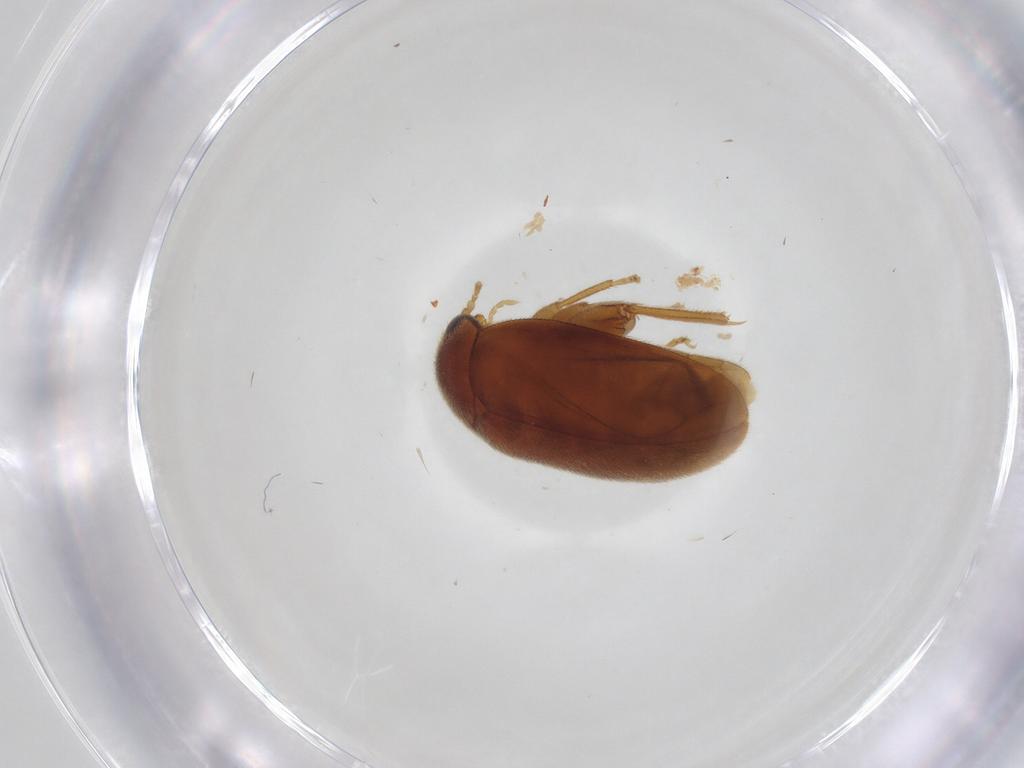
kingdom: Animalia
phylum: Arthropoda
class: Insecta
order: Coleoptera
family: Scirtidae
